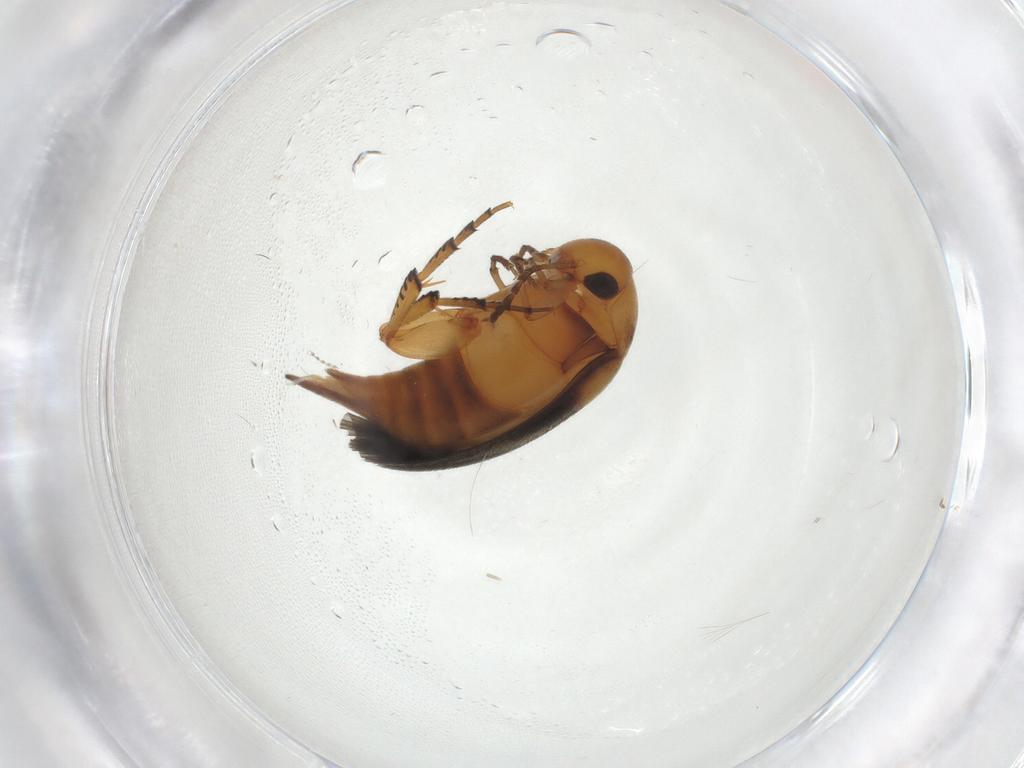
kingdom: Animalia
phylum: Arthropoda
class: Insecta
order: Coleoptera
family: Mordellidae
